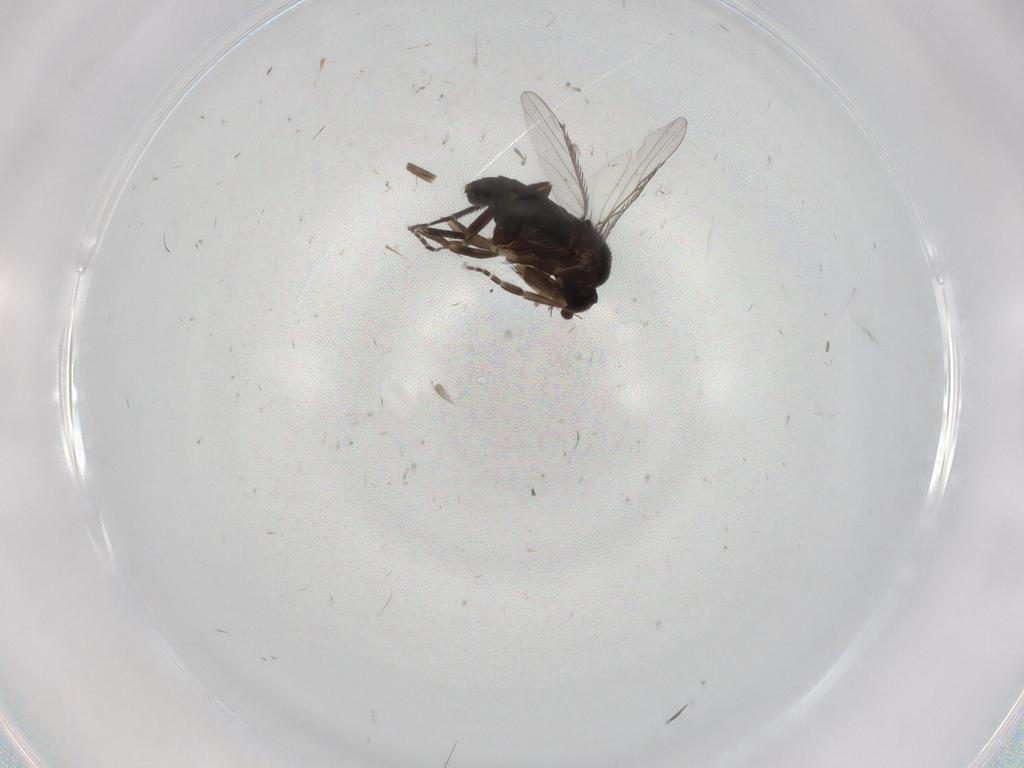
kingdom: Animalia
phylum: Arthropoda
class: Insecta
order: Diptera
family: Phoridae
